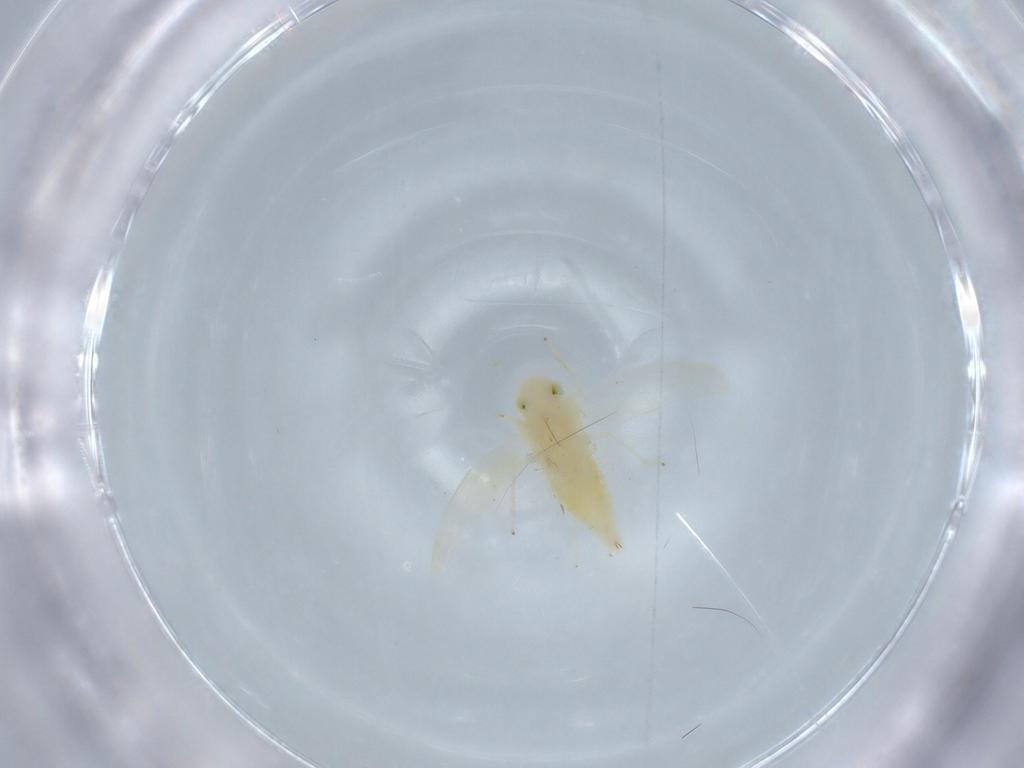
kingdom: Animalia
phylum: Arthropoda
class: Insecta
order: Hemiptera
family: Cicadellidae
